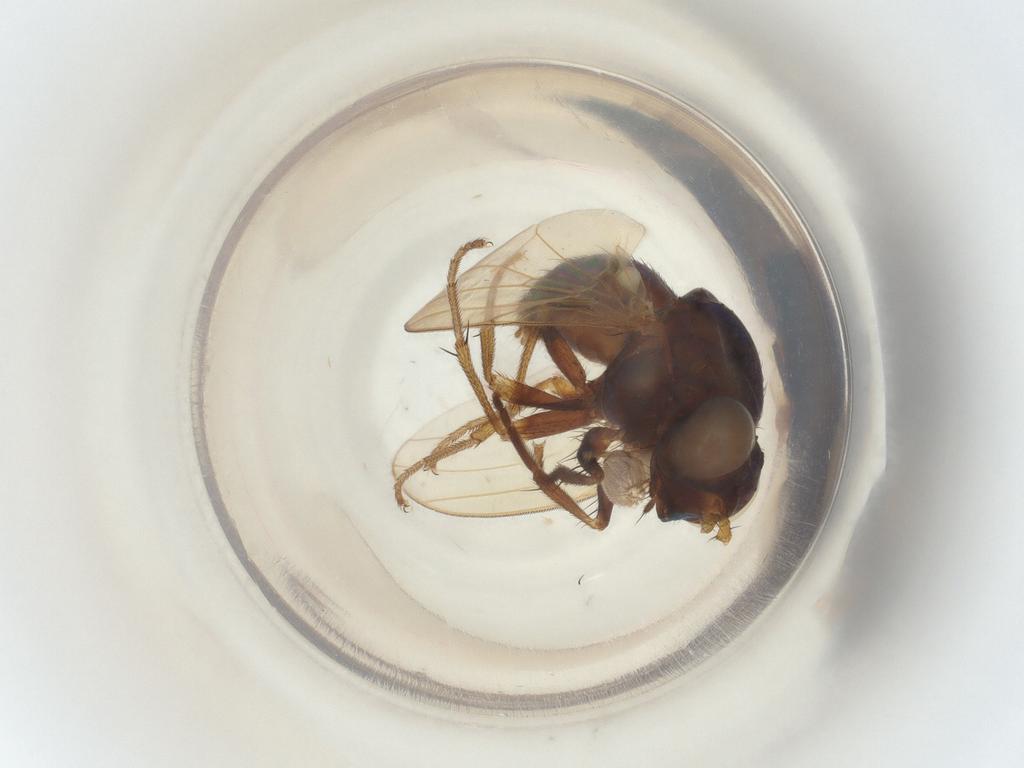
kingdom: Animalia
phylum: Arthropoda
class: Insecta
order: Diptera
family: Lauxaniidae
